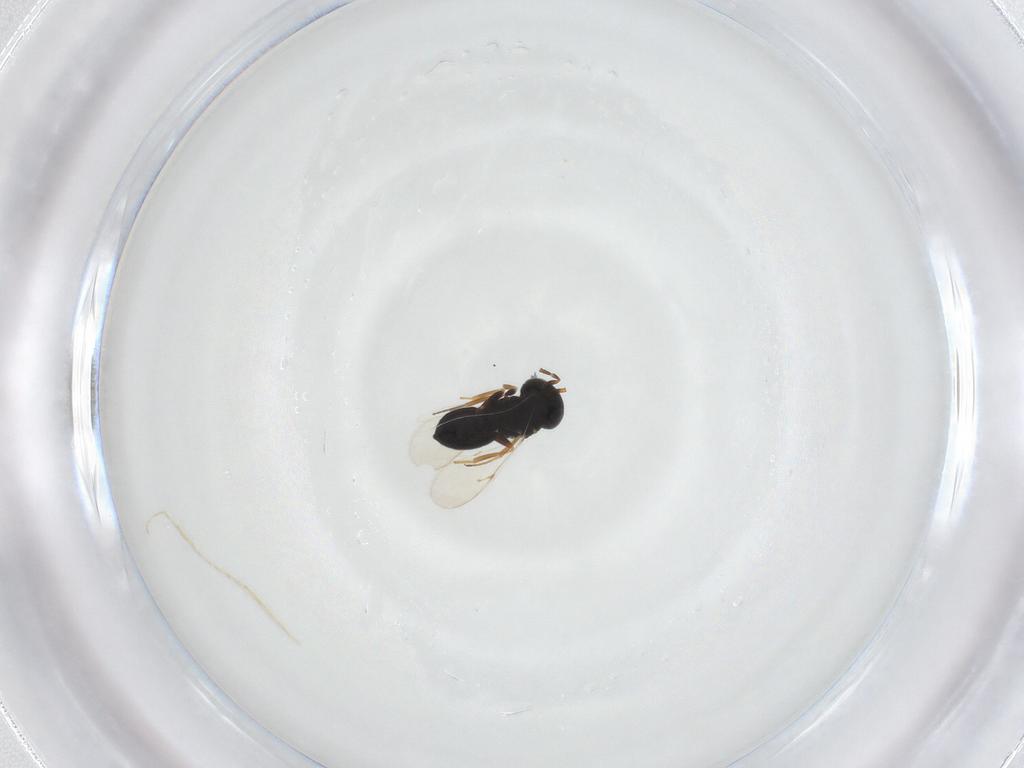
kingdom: Animalia
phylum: Arthropoda
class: Insecta
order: Hymenoptera
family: Scelionidae
